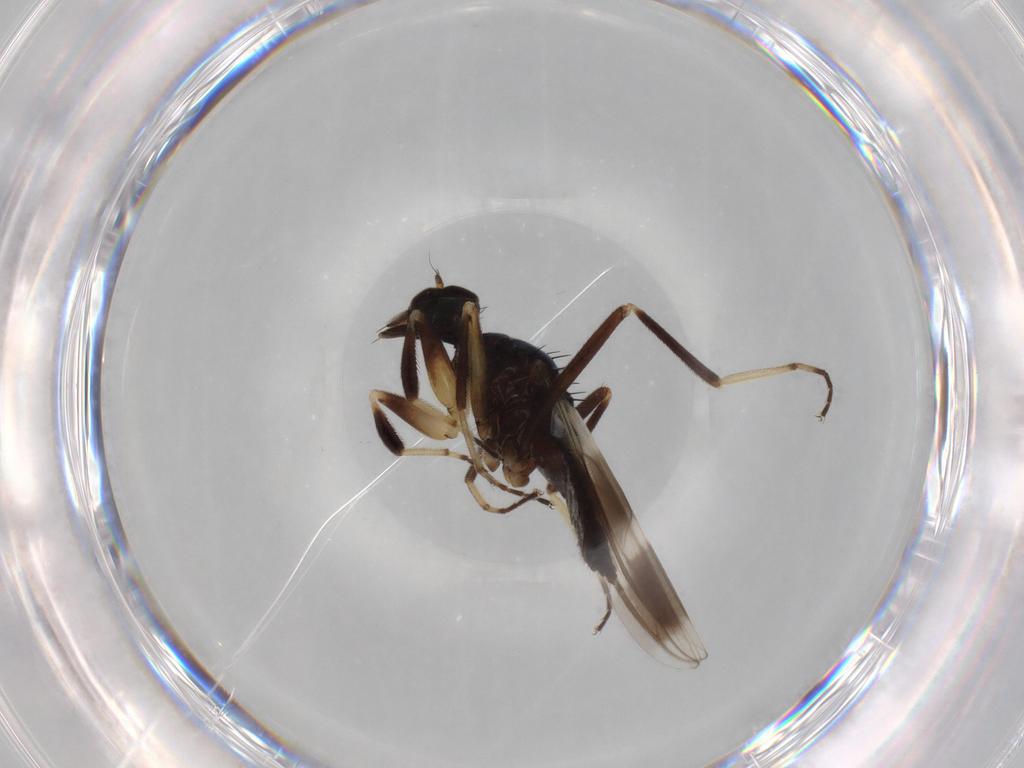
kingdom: Animalia
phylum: Arthropoda
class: Insecta
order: Diptera
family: Hybotidae
